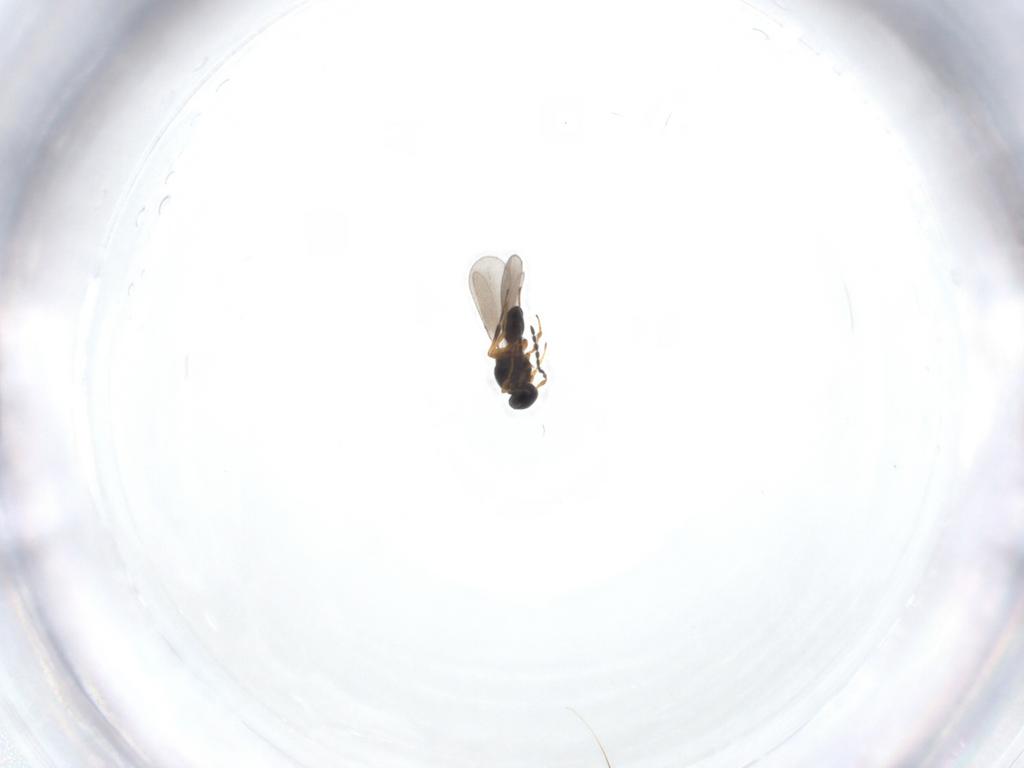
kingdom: Animalia
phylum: Arthropoda
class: Insecta
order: Hymenoptera
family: Platygastridae
